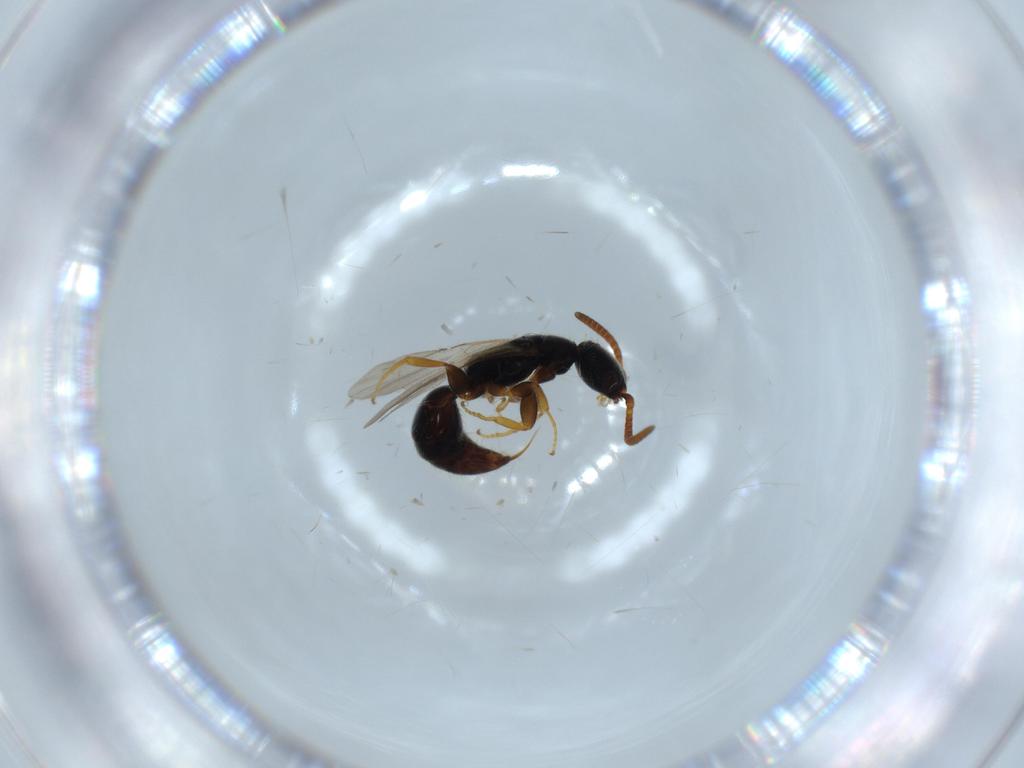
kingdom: Animalia
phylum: Arthropoda
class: Insecta
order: Hymenoptera
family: Bethylidae
